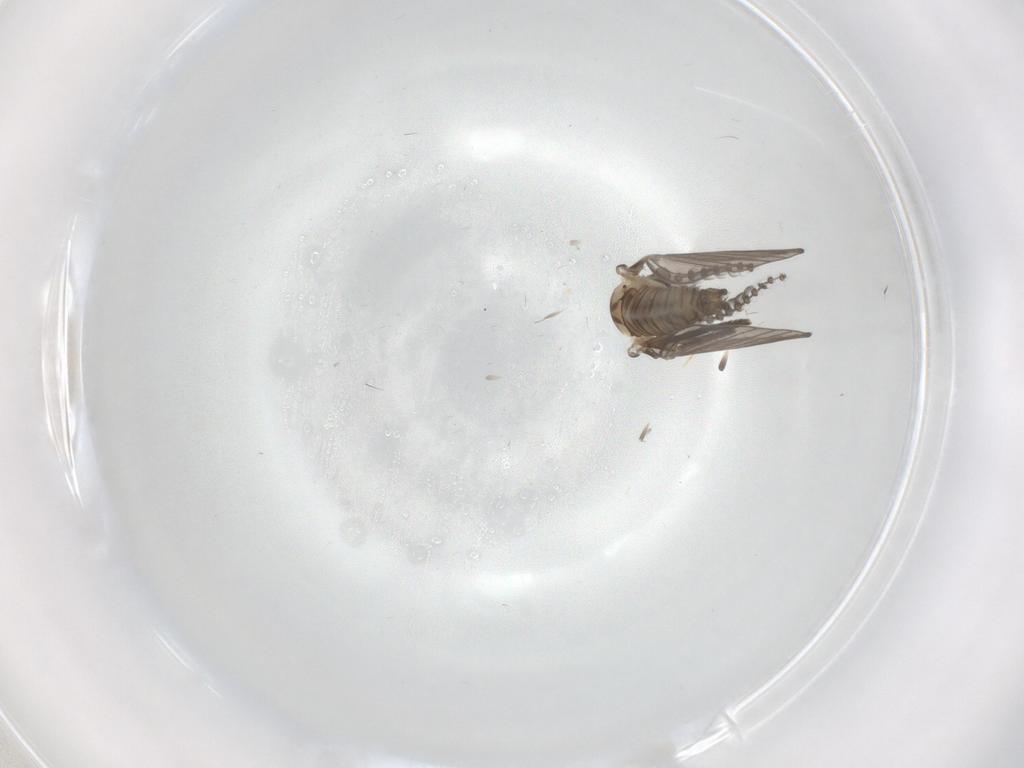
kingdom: Animalia
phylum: Arthropoda
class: Insecta
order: Diptera
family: Psychodidae
